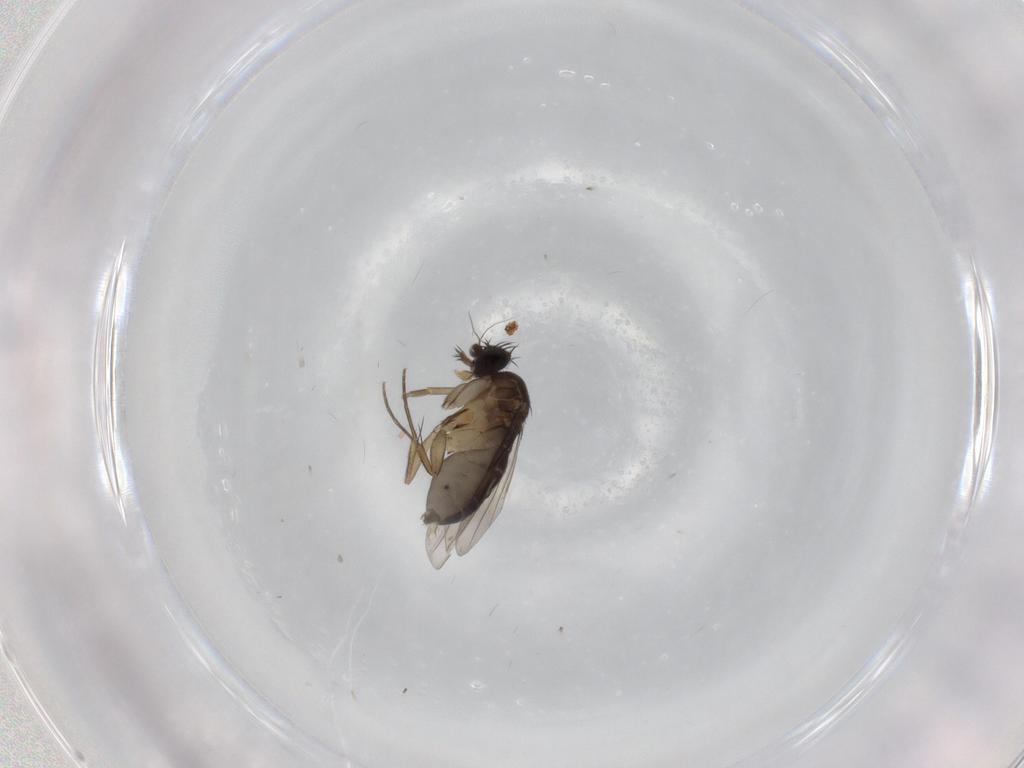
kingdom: Animalia
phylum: Arthropoda
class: Insecta
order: Diptera
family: Phoridae
